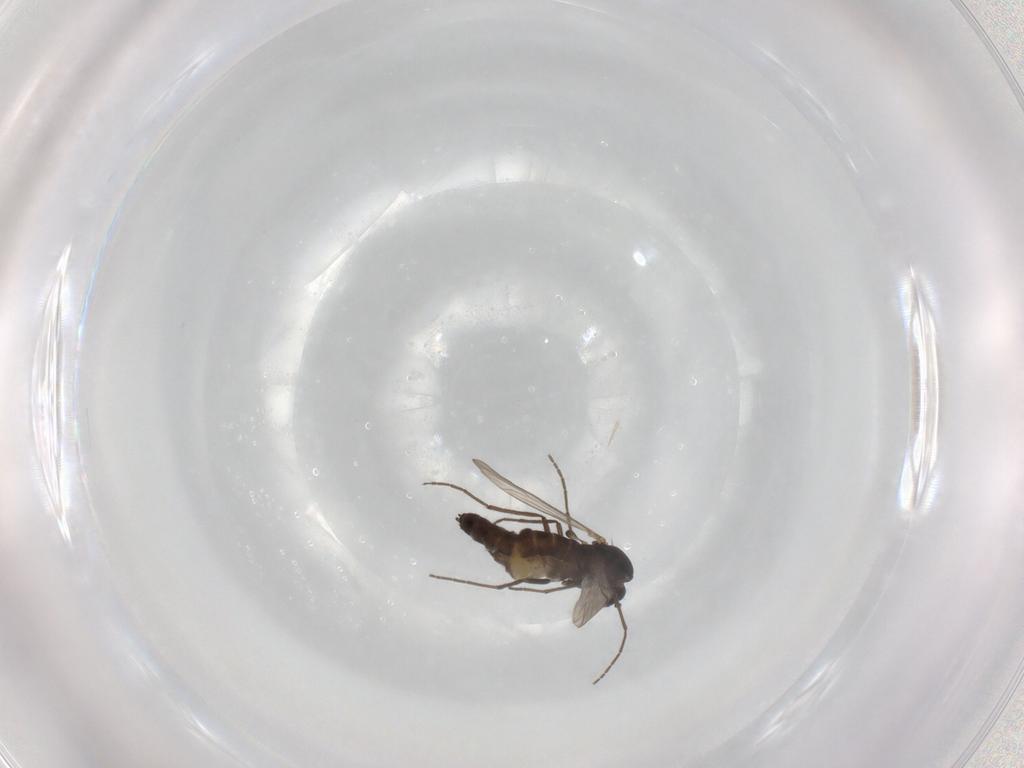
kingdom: Animalia
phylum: Arthropoda
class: Insecta
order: Diptera
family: Chironomidae
